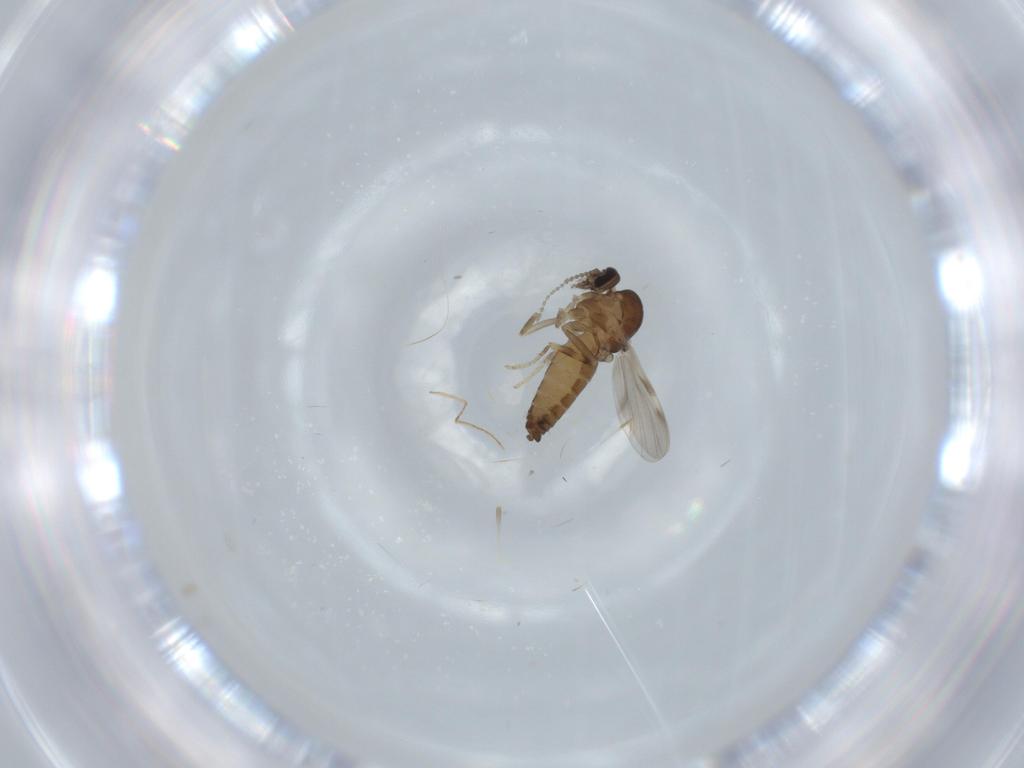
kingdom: Animalia
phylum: Arthropoda
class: Insecta
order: Diptera
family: Ceratopogonidae
